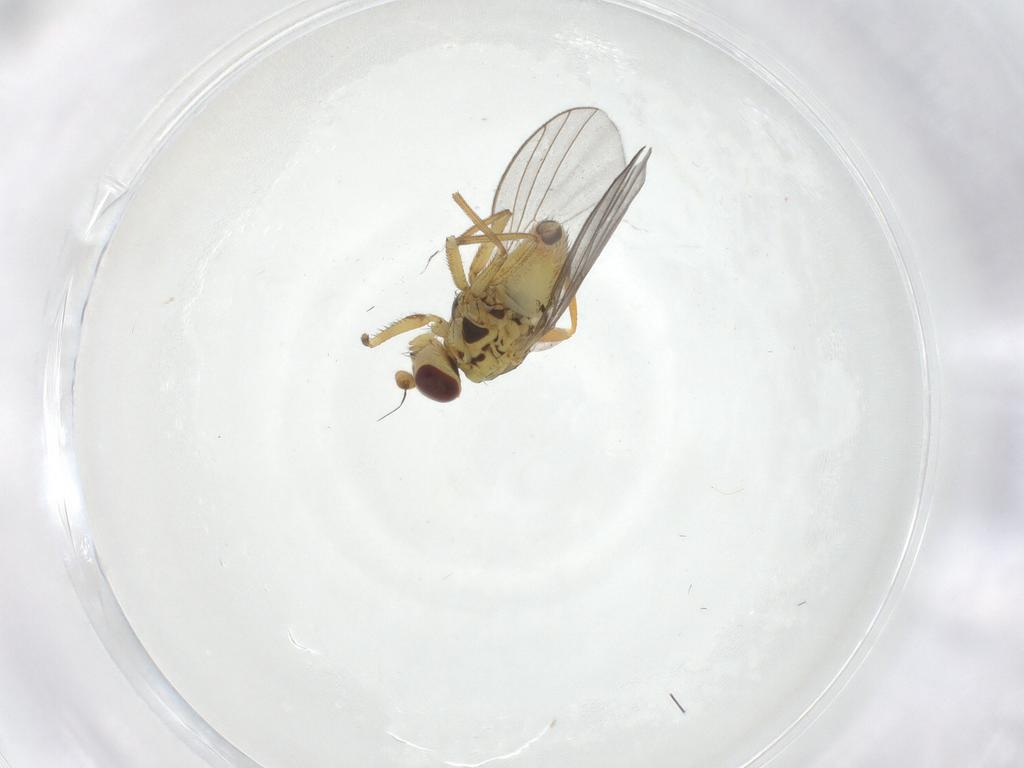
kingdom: Animalia
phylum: Arthropoda
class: Insecta
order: Diptera
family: Chloropidae
